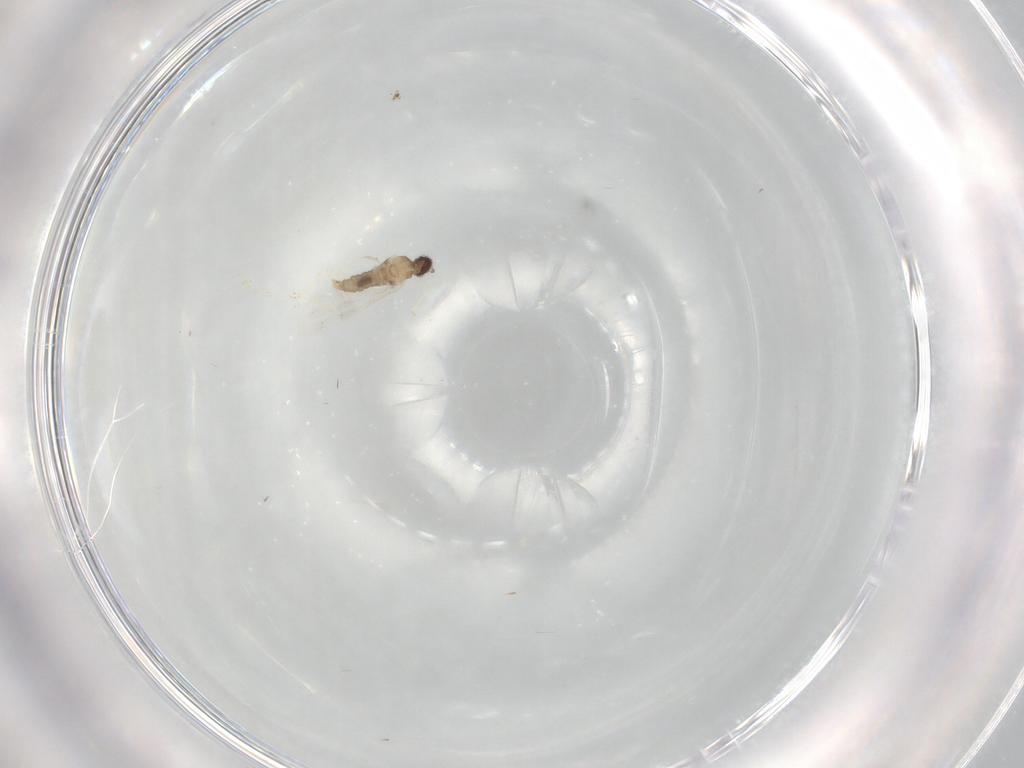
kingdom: Animalia
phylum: Arthropoda
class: Insecta
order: Diptera
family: Cecidomyiidae
